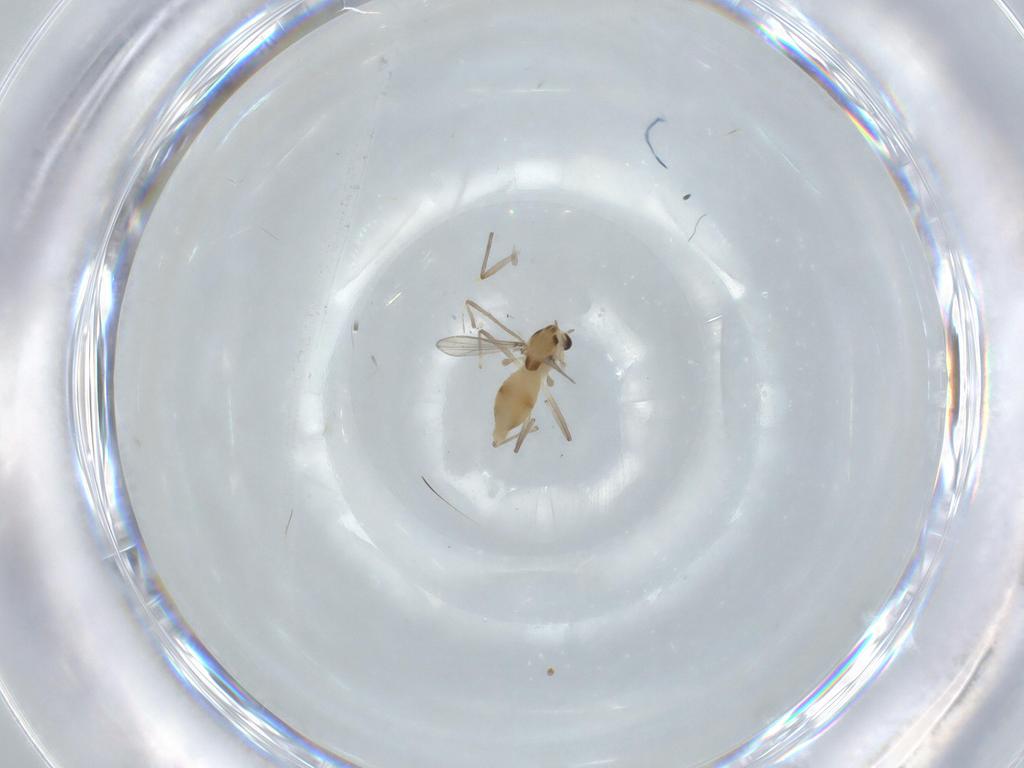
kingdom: Animalia
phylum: Arthropoda
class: Insecta
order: Diptera
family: Chironomidae
